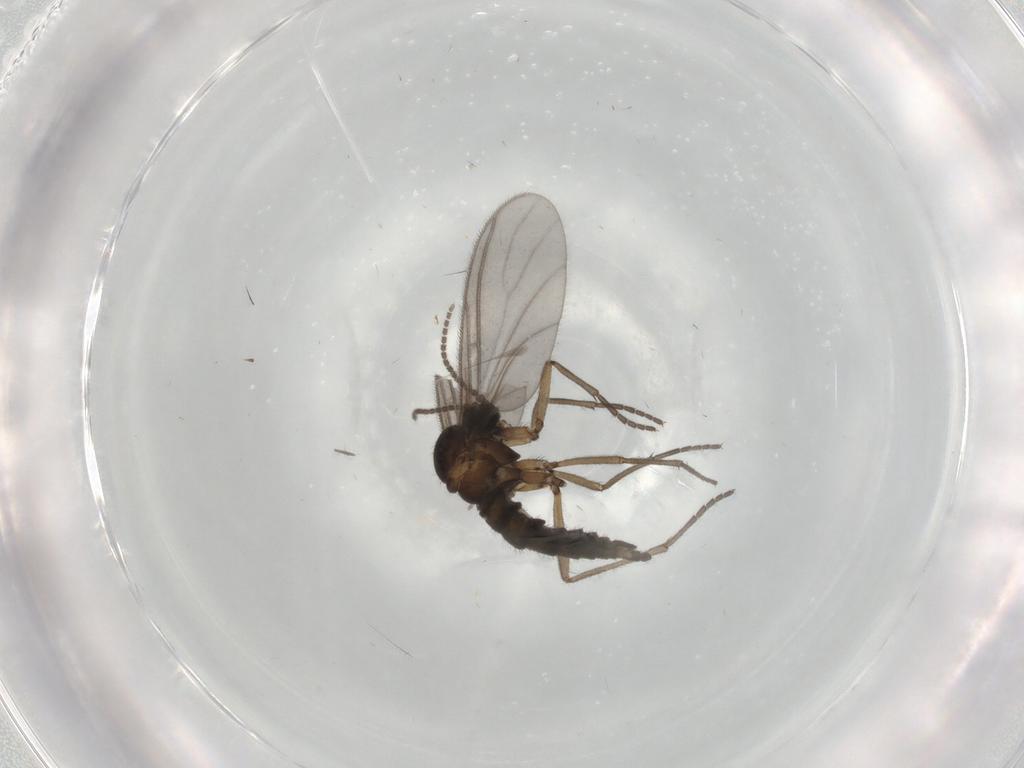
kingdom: Animalia
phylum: Arthropoda
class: Insecta
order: Diptera
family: Sciaridae
